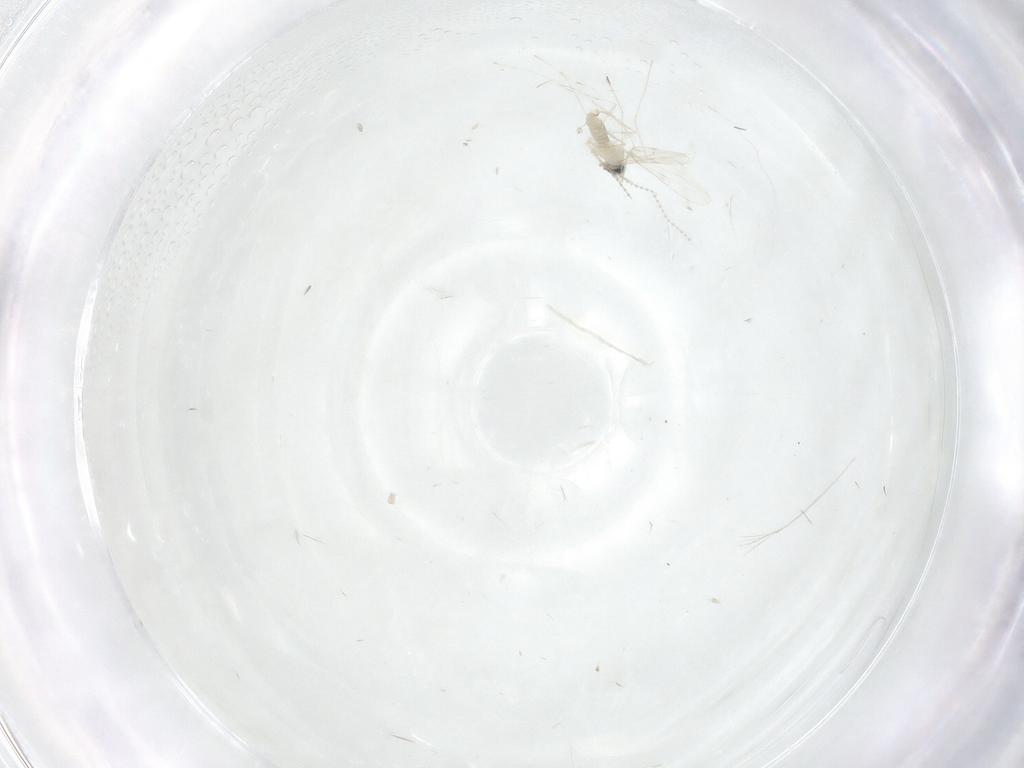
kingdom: Animalia
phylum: Arthropoda
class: Insecta
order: Diptera
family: Cecidomyiidae
